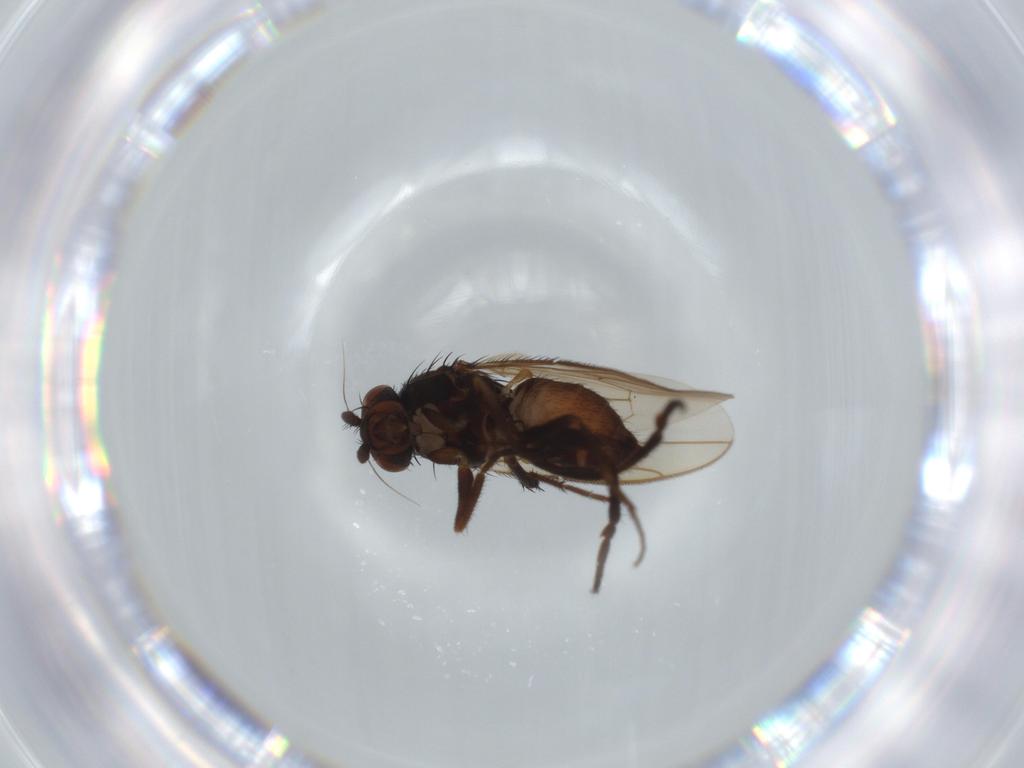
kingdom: Animalia
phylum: Arthropoda
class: Insecta
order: Diptera
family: Sphaeroceridae
